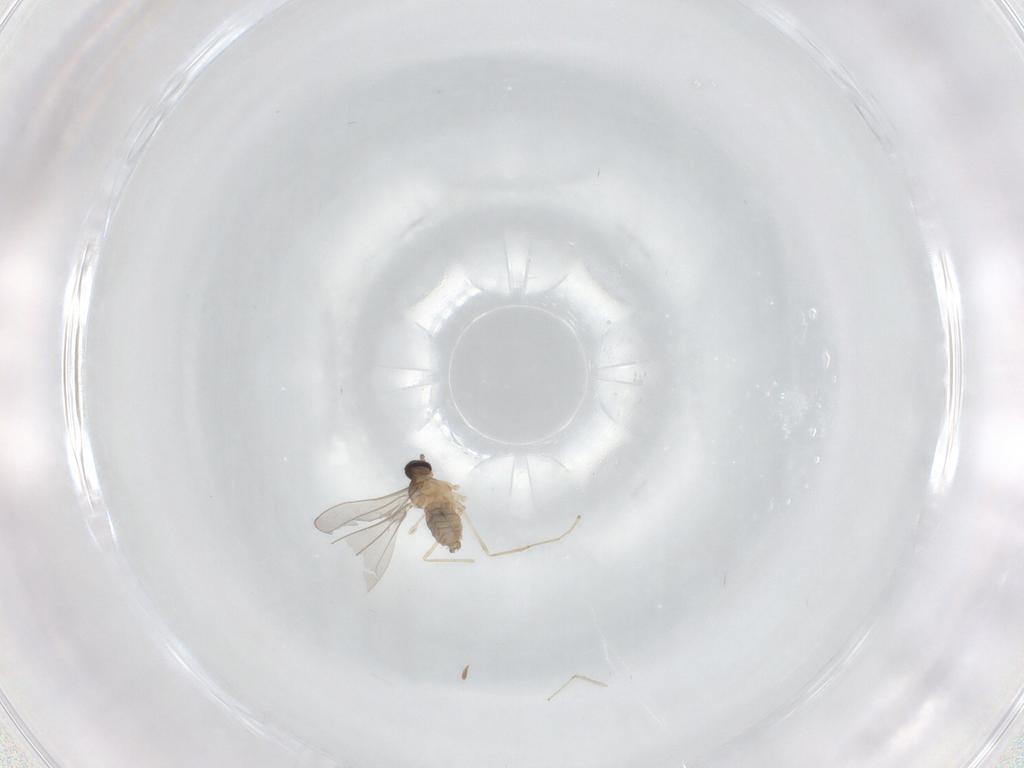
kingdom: Animalia
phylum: Arthropoda
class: Insecta
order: Diptera
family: Cecidomyiidae
